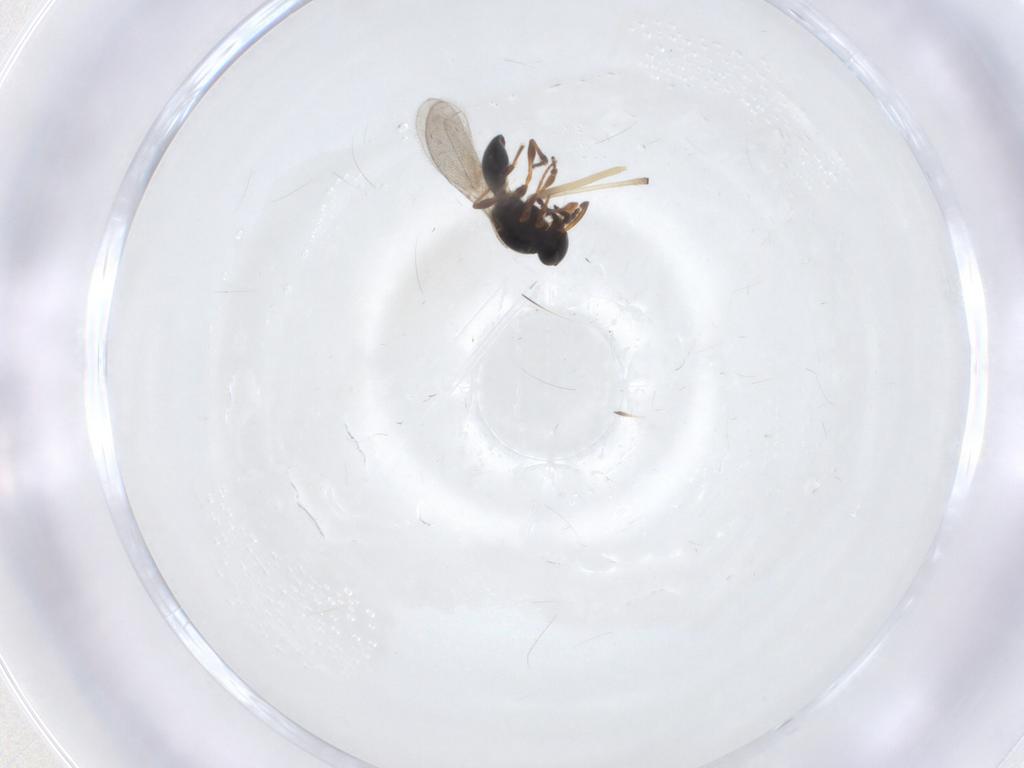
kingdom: Animalia
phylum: Arthropoda
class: Insecta
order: Hymenoptera
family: Platygastridae
